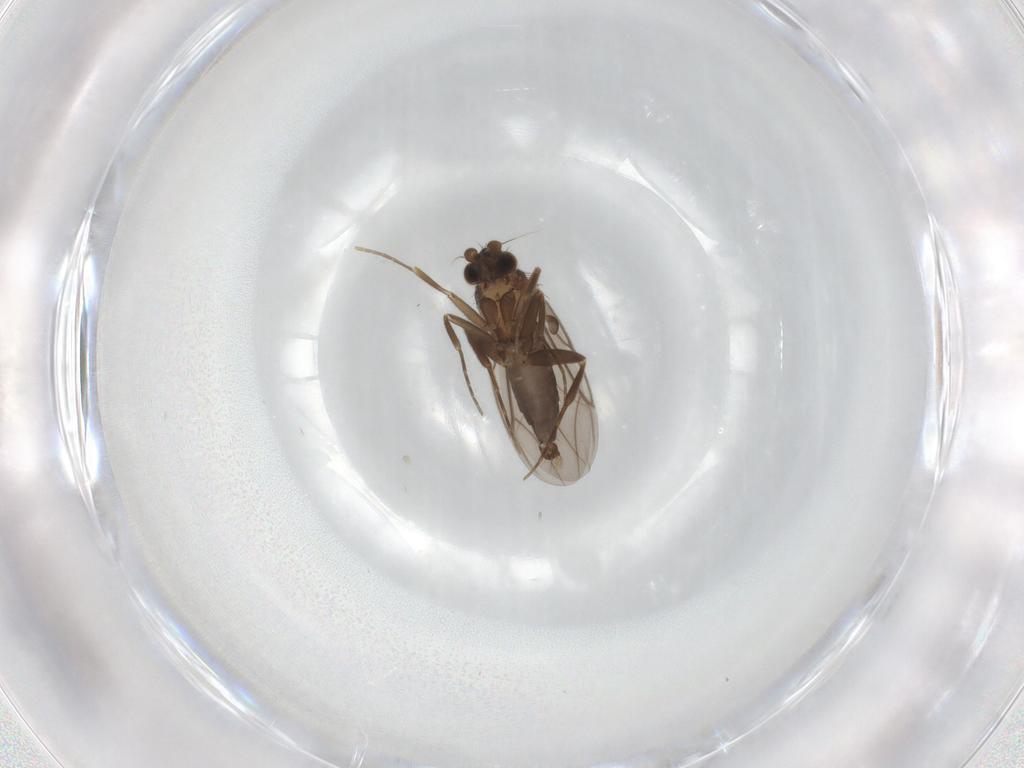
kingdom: Animalia
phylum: Arthropoda
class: Insecta
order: Diptera
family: Phoridae
